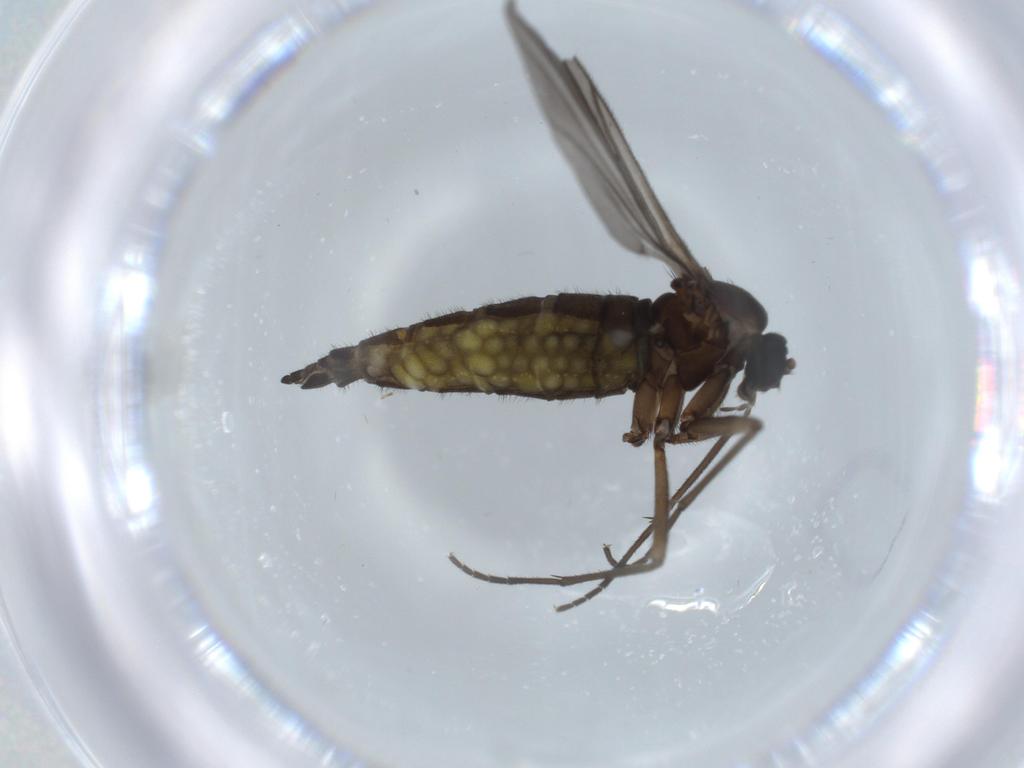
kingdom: Animalia
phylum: Arthropoda
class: Insecta
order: Diptera
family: Sciaridae
